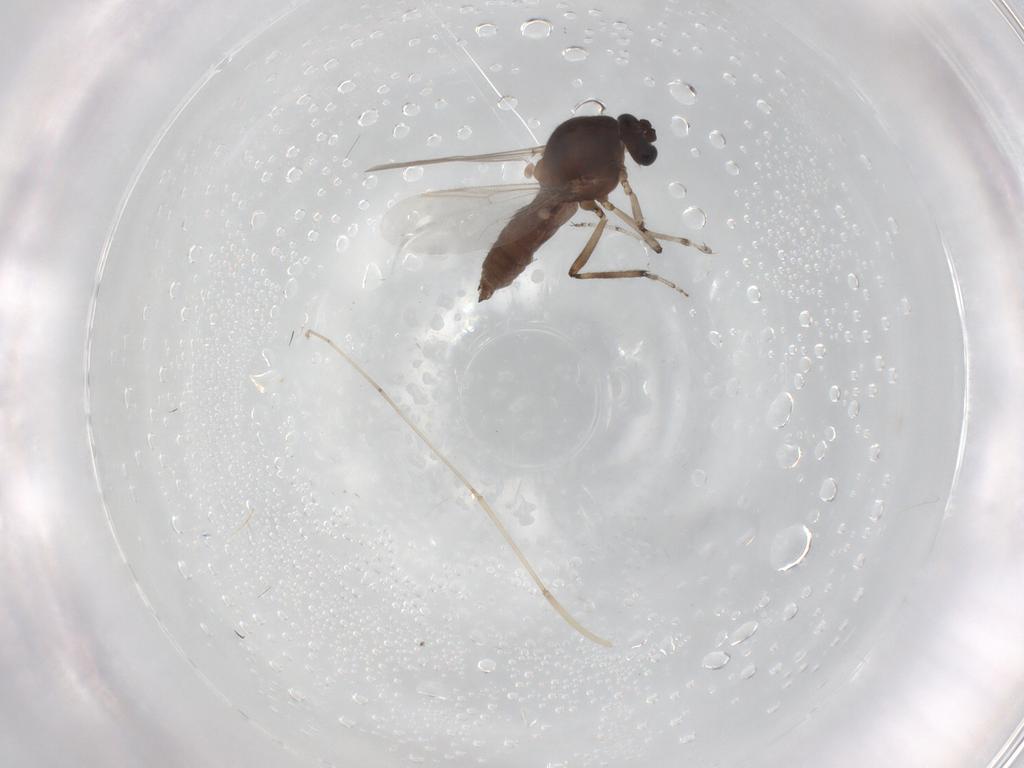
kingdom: Animalia
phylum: Arthropoda
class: Insecta
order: Diptera
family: Ceratopogonidae
